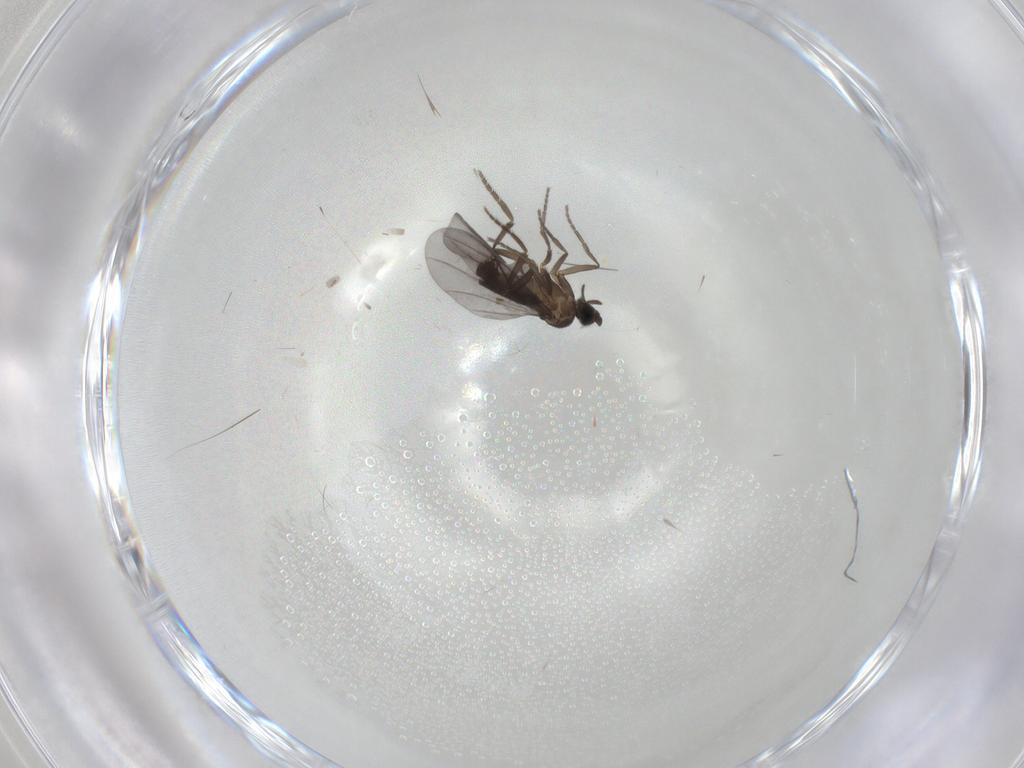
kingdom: Animalia
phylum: Arthropoda
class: Insecta
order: Diptera
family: Phoridae
